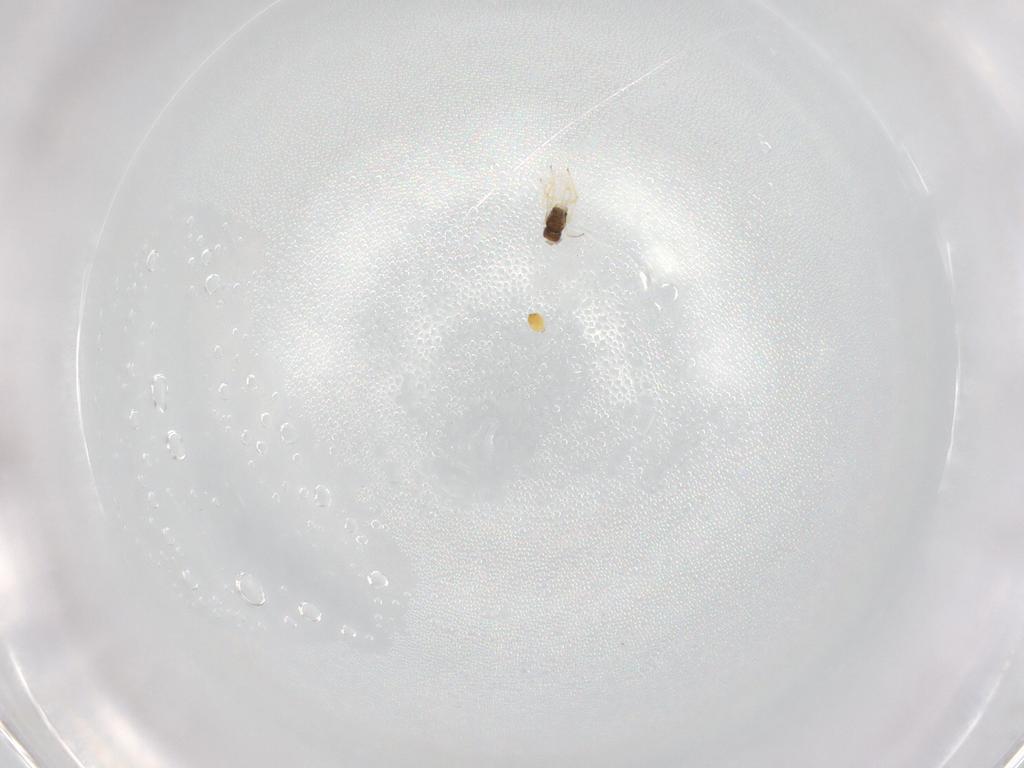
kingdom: Animalia
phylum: Arthropoda
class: Insecta
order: Hymenoptera
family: Eulophidae
